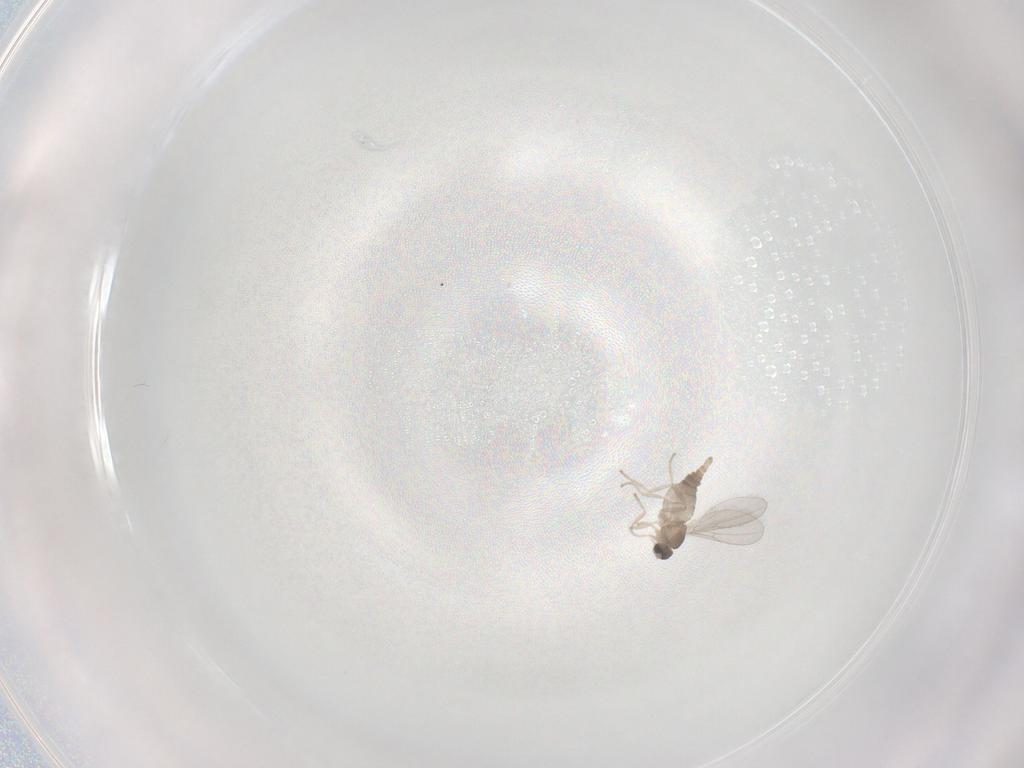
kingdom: Animalia
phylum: Arthropoda
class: Insecta
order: Diptera
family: Cecidomyiidae
